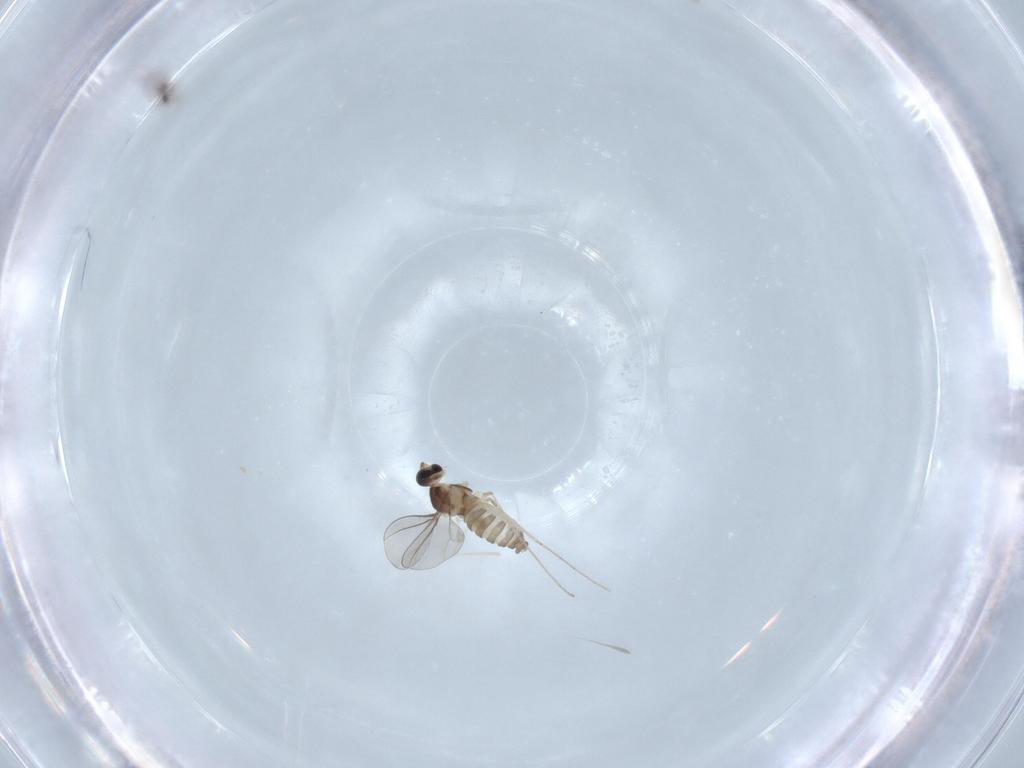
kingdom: Animalia
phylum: Arthropoda
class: Insecta
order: Diptera
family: Cecidomyiidae
